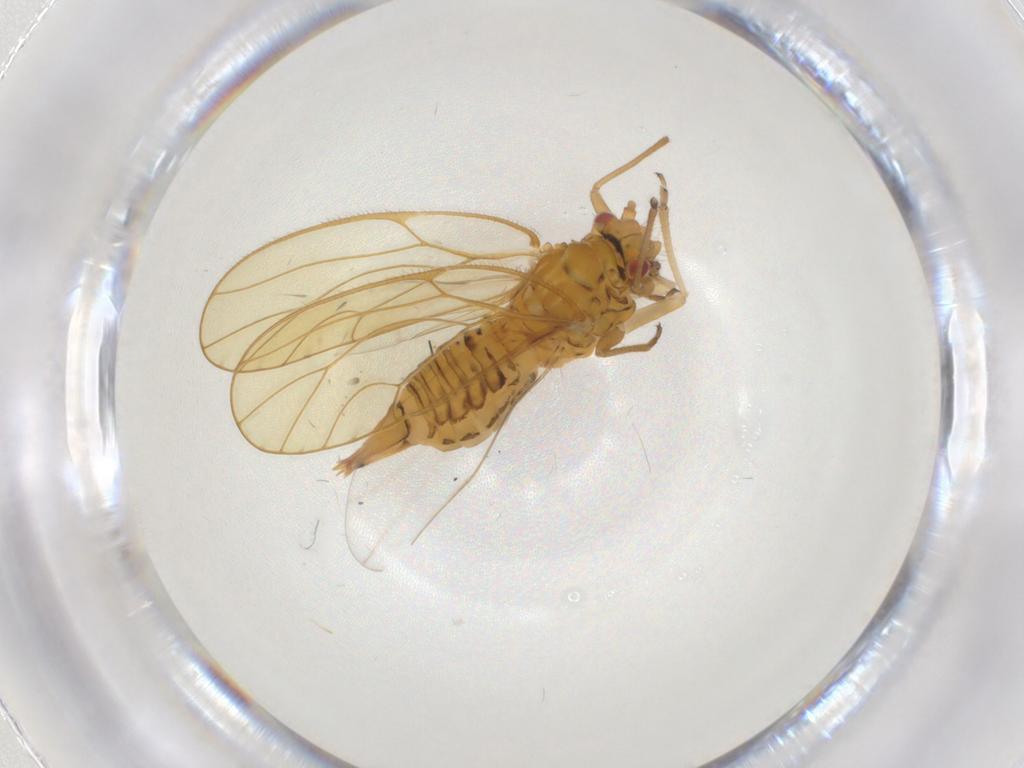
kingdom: Animalia
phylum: Arthropoda
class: Insecta
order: Hemiptera
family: Psyllidae
